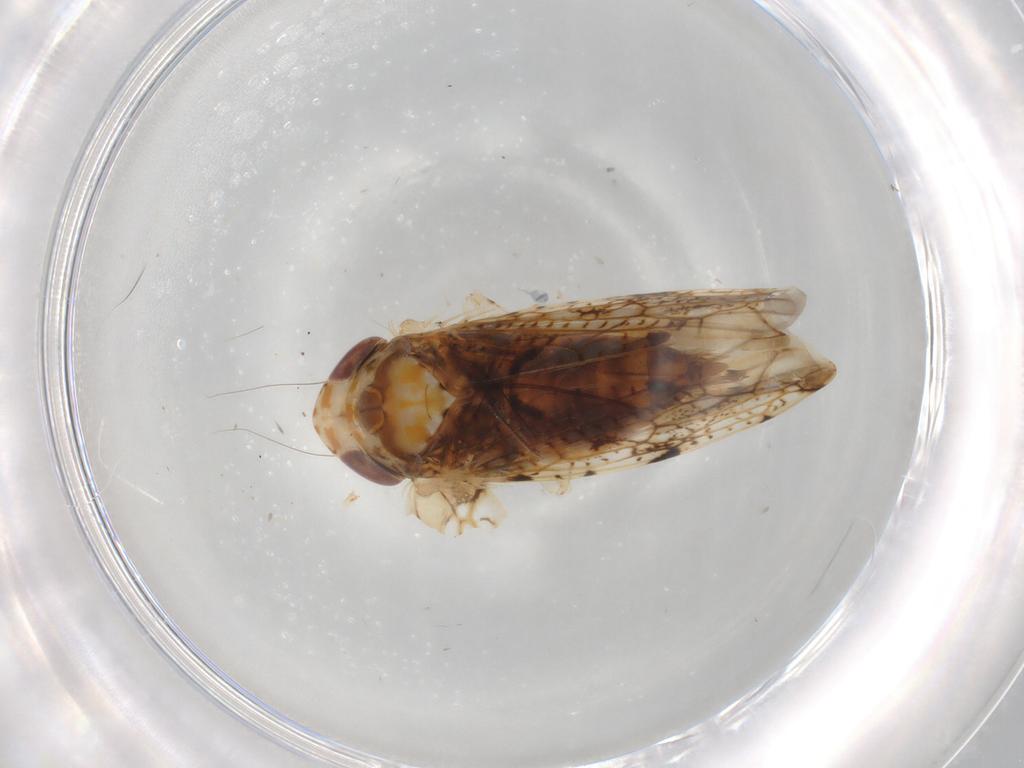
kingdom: Animalia
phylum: Arthropoda
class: Insecta
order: Hemiptera
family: Cicadellidae
